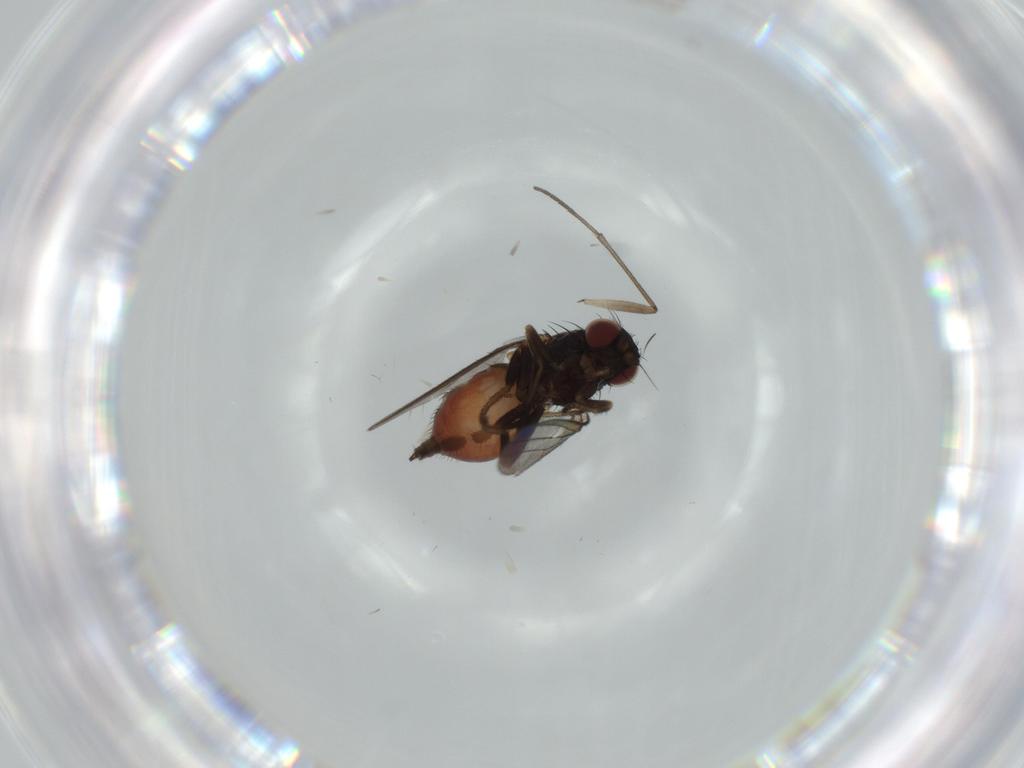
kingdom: Animalia
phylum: Arthropoda
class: Insecta
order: Diptera
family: Milichiidae
